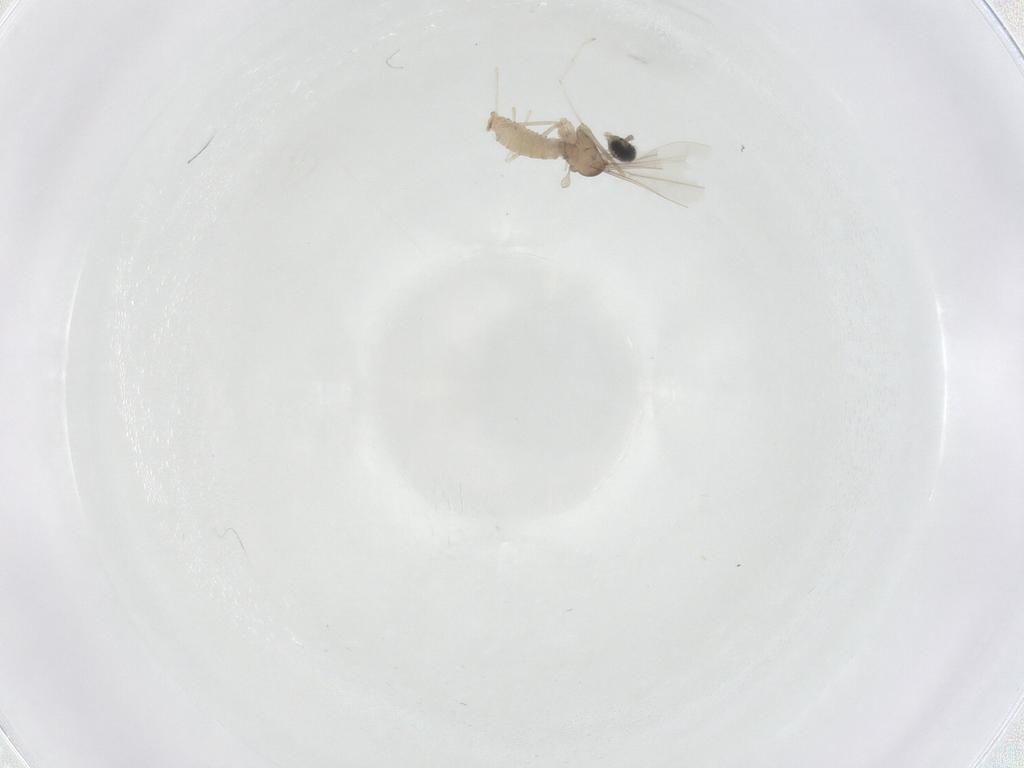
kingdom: Animalia
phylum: Arthropoda
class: Insecta
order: Diptera
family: Cecidomyiidae
